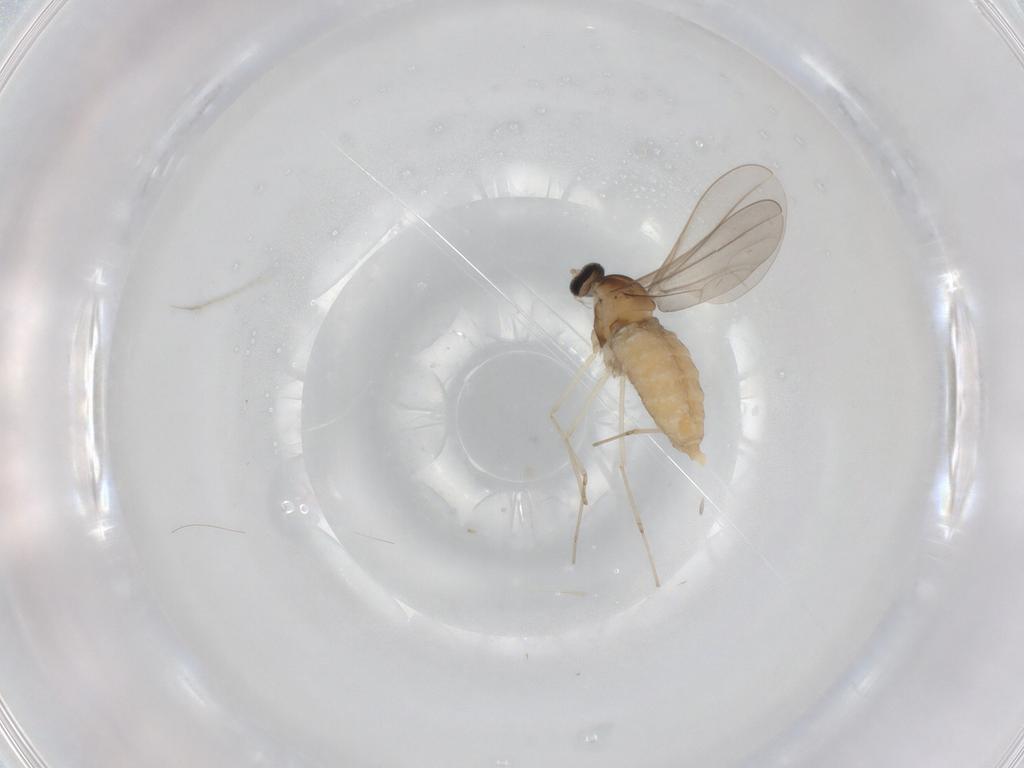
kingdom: Animalia
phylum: Arthropoda
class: Insecta
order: Diptera
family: Cecidomyiidae
